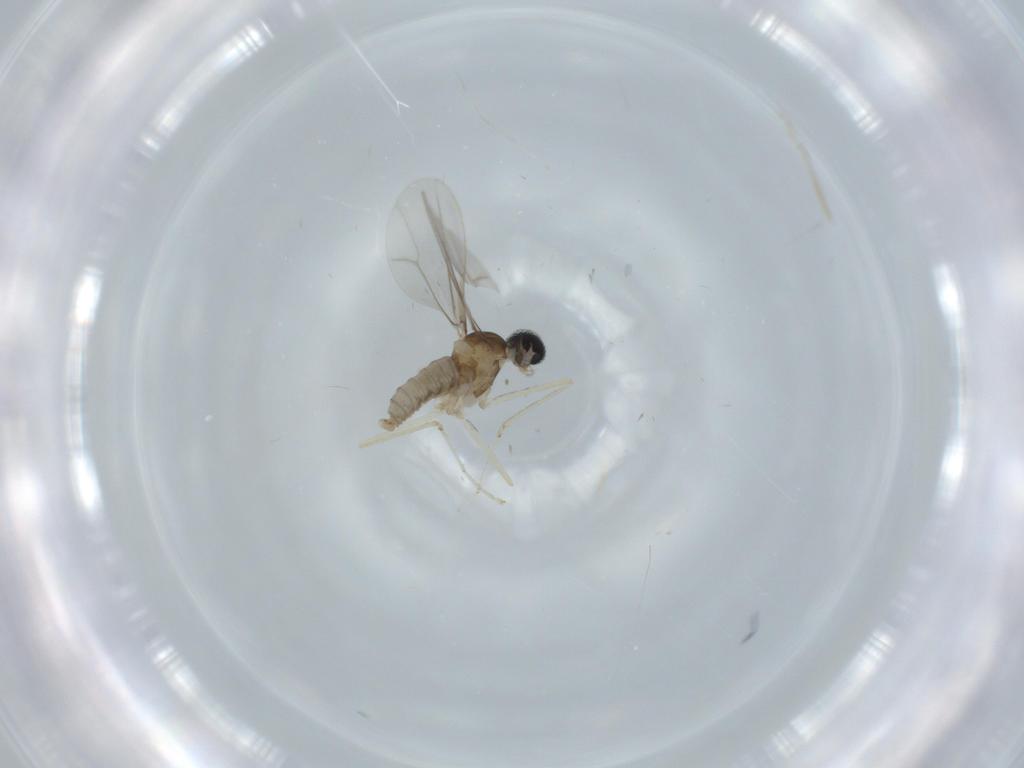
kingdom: Animalia
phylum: Arthropoda
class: Insecta
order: Diptera
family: Cecidomyiidae
